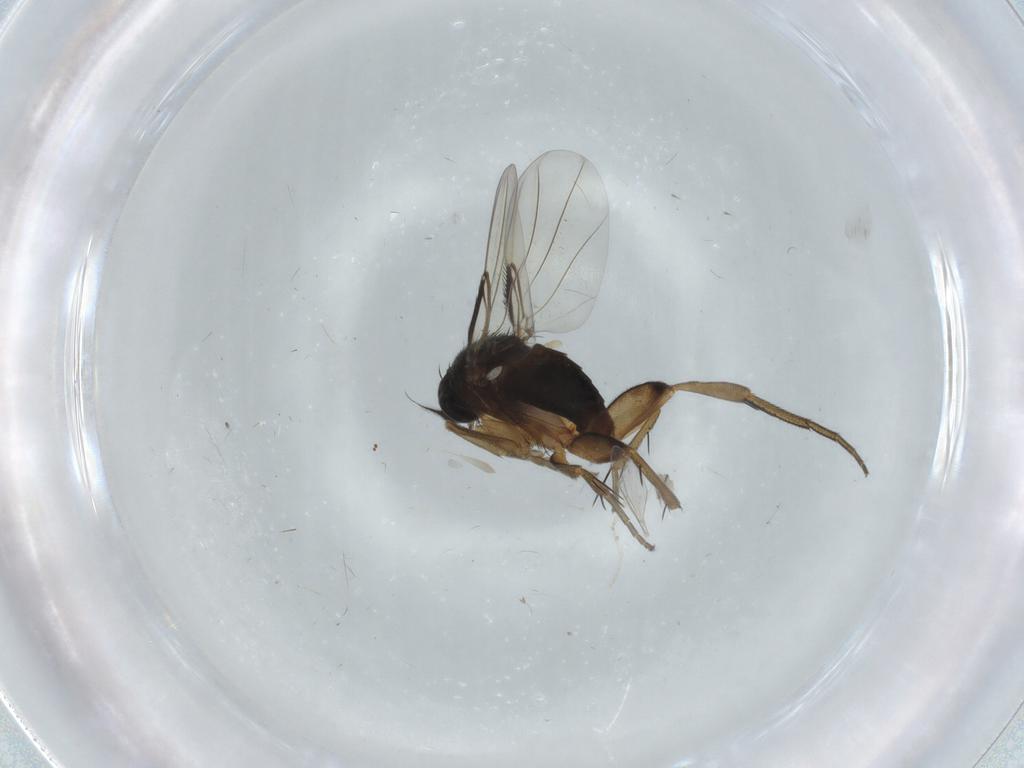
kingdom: Animalia
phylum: Arthropoda
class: Insecta
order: Diptera
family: Phoridae
